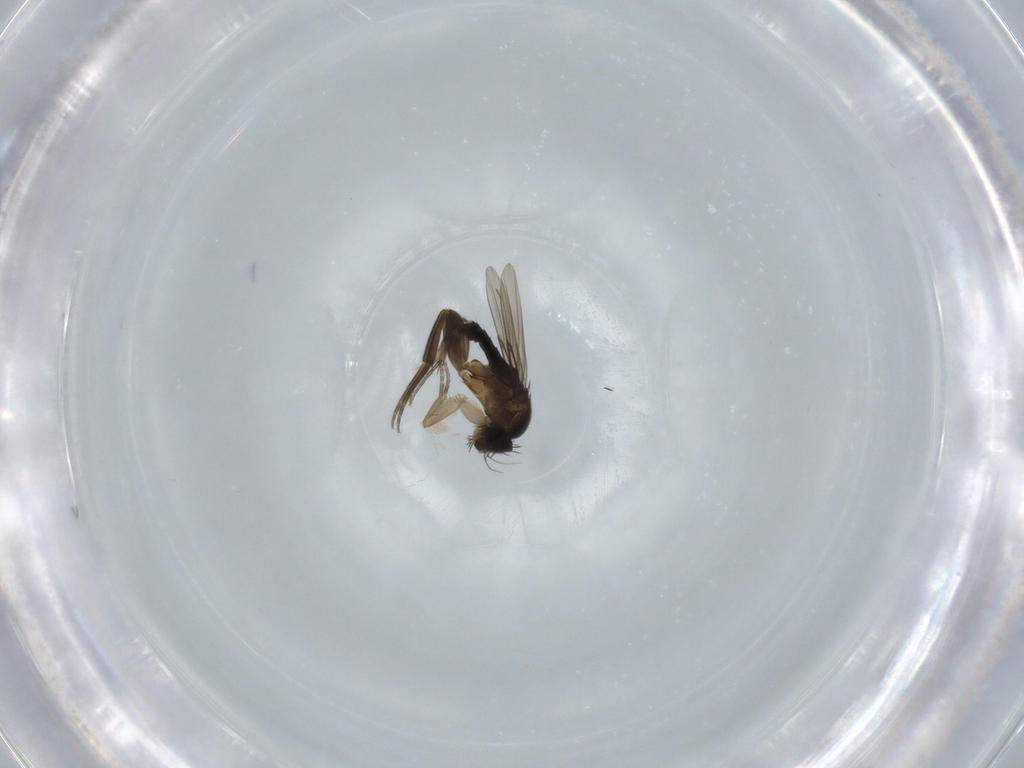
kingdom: Animalia
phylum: Arthropoda
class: Insecta
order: Diptera
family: Phoridae
